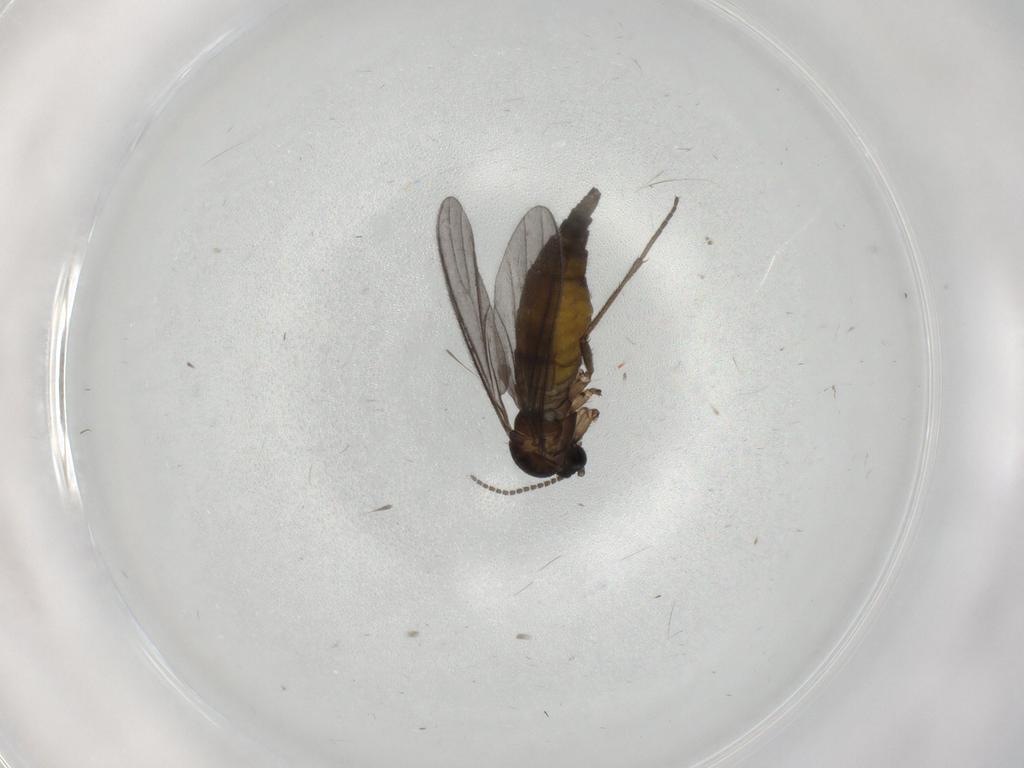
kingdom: Animalia
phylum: Arthropoda
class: Insecta
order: Diptera
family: Sciaridae
